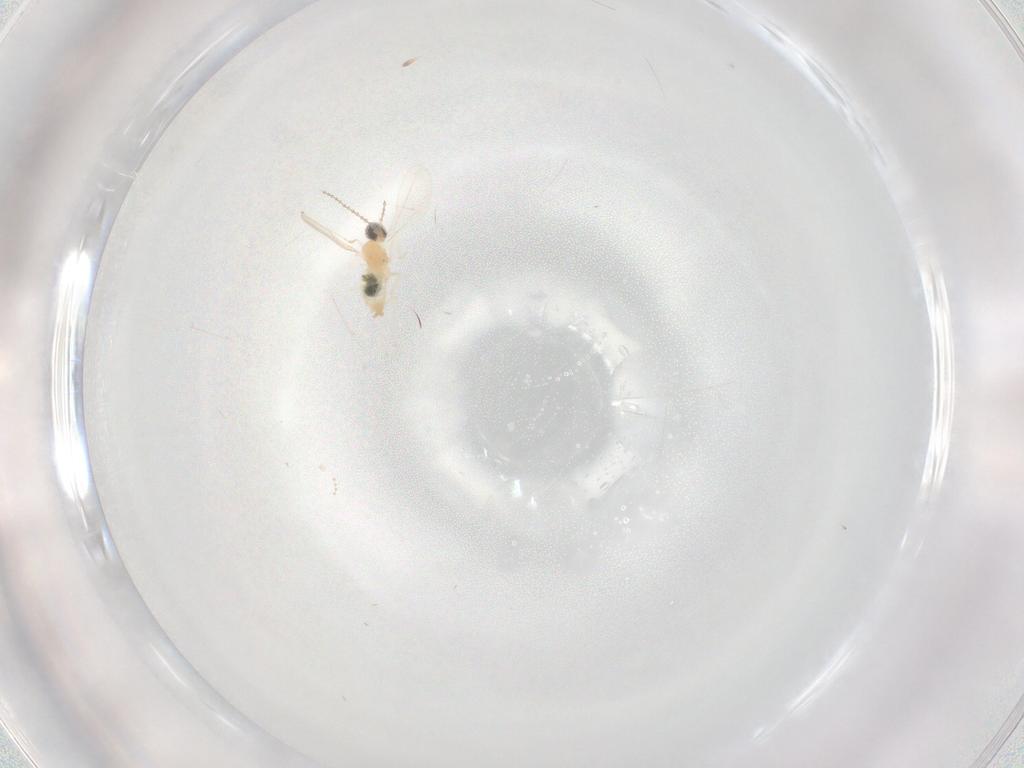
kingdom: Animalia
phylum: Arthropoda
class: Insecta
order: Diptera
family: Cecidomyiidae
